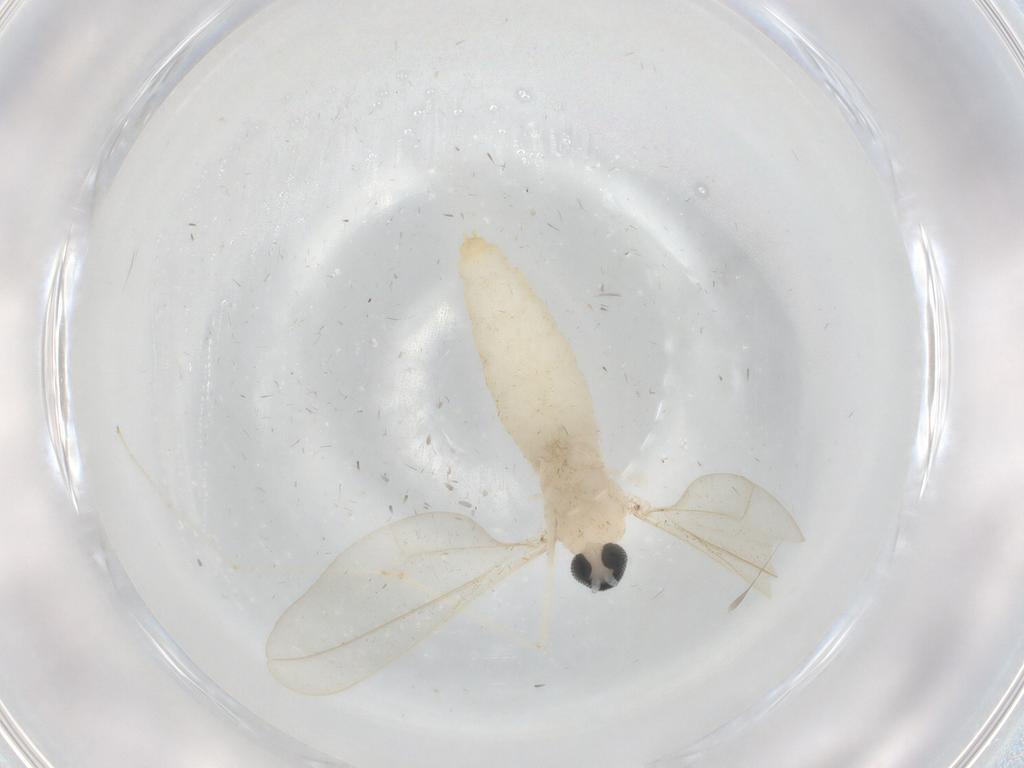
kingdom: Animalia
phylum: Arthropoda
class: Insecta
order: Diptera
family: Cecidomyiidae
